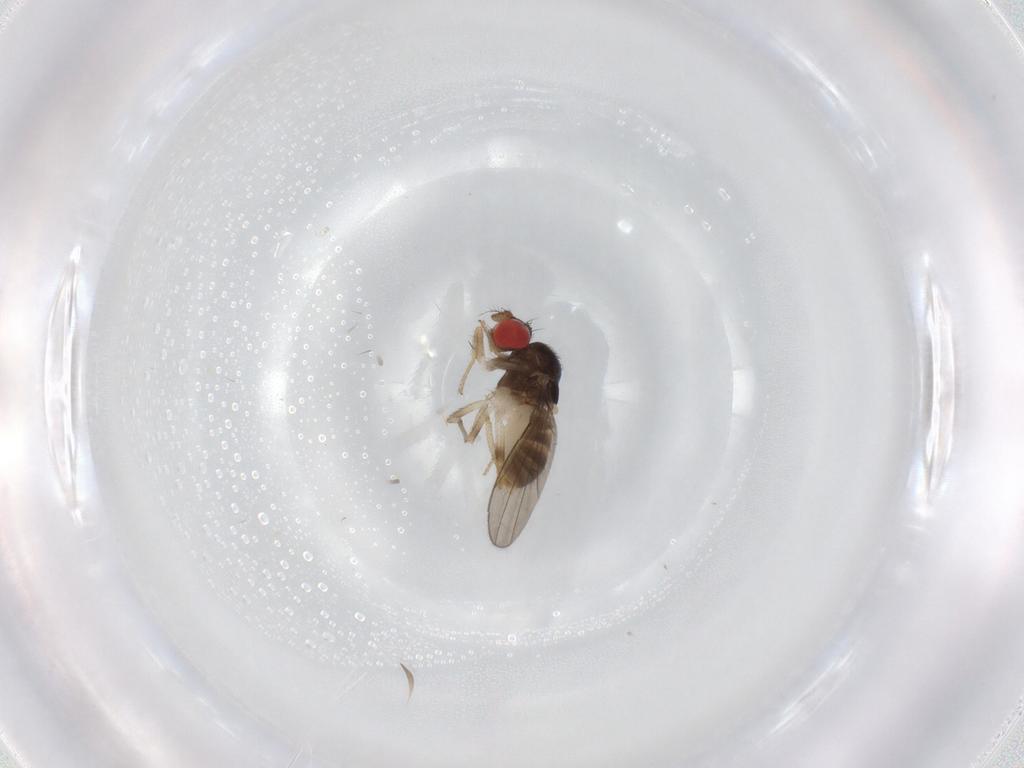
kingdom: Animalia
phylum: Arthropoda
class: Insecta
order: Diptera
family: Drosophilidae
